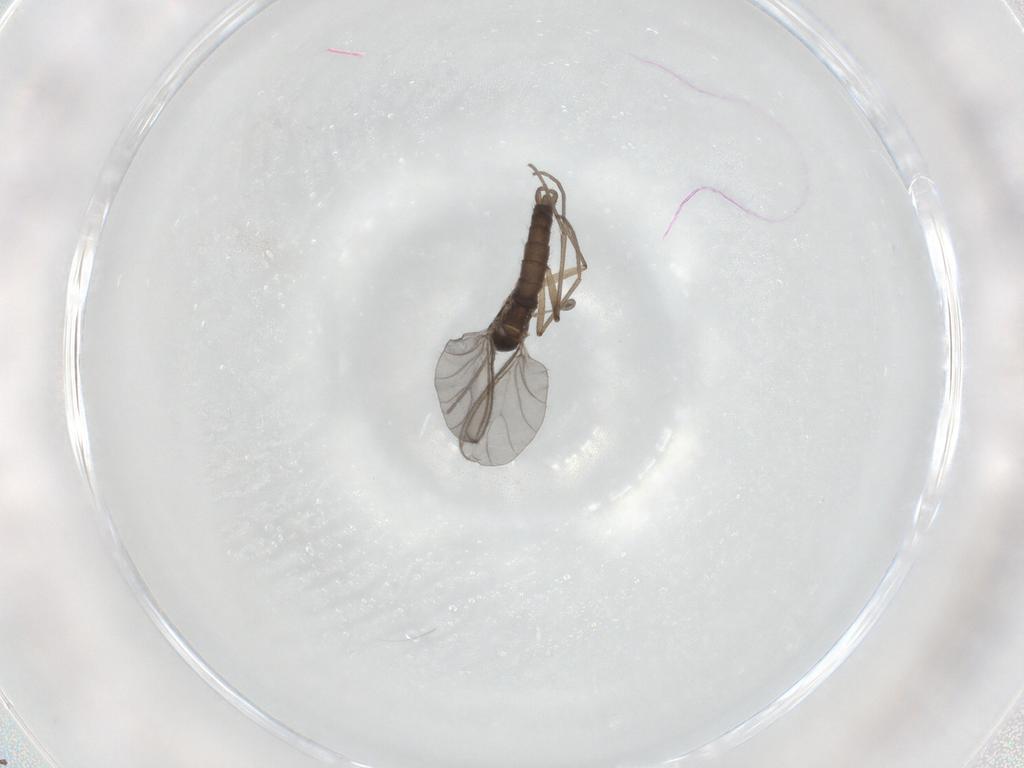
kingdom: Animalia
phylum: Arthropoda
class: Insecta
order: Diptera
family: Sciaridae
